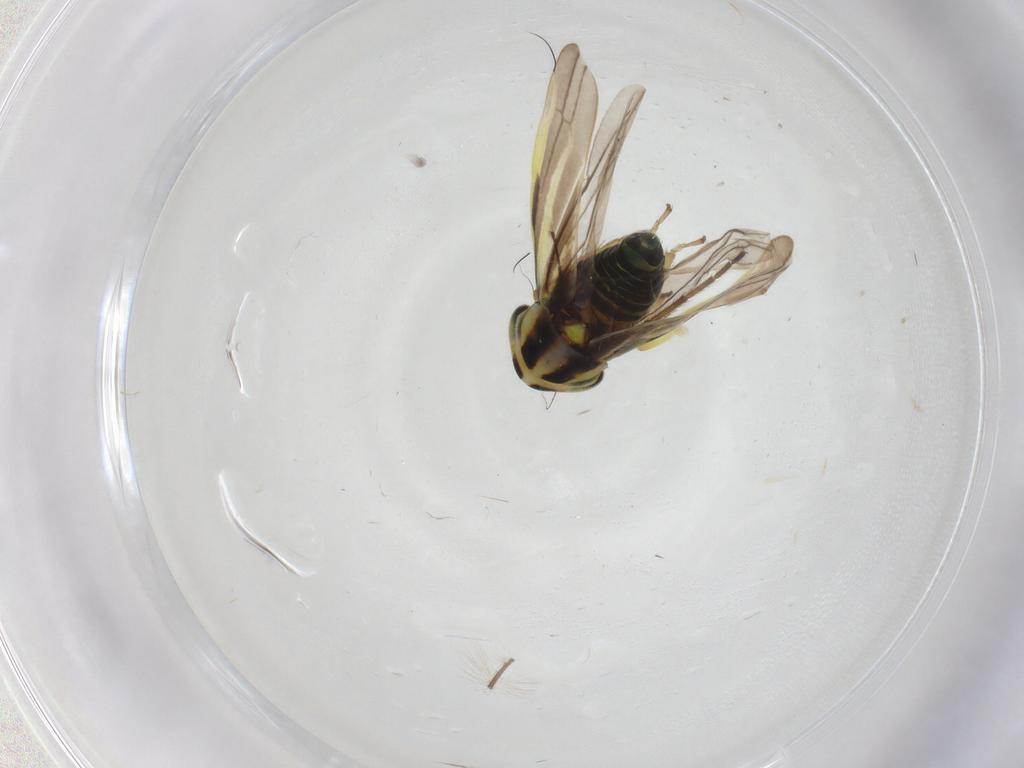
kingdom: Animalia
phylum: Arthropoda
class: Insecta
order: Hemiptera
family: Cicadellidae
